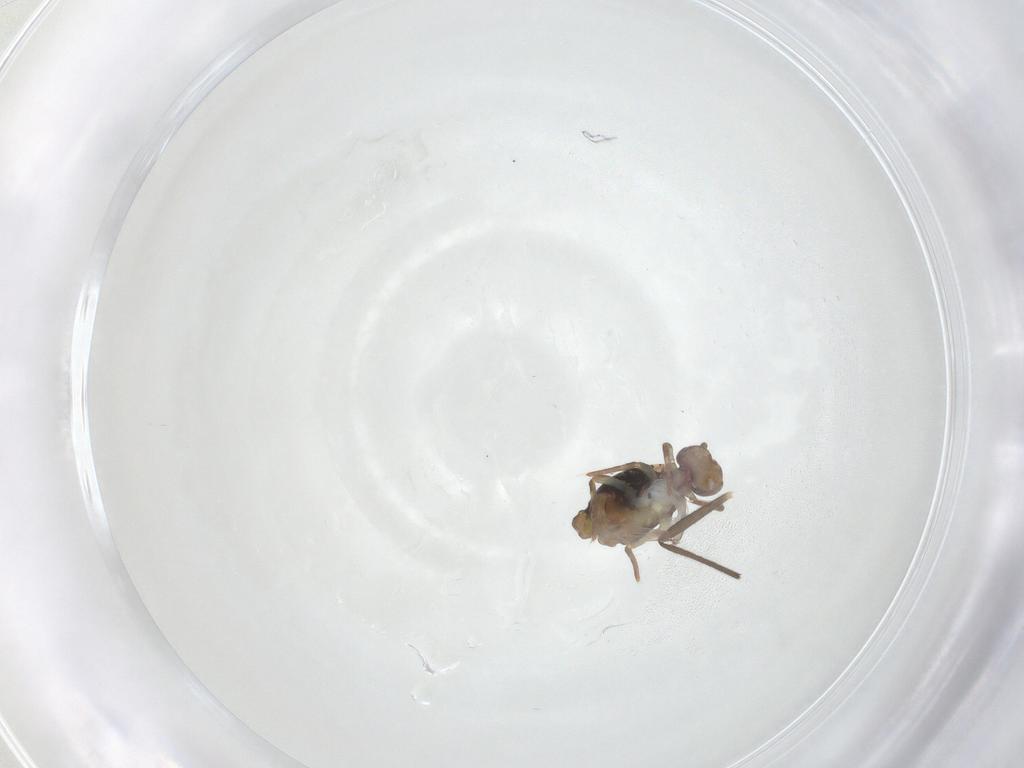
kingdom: Animalia
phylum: Arthropoda
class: Collembola
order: Symphypleona
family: Dicyrtomidae
